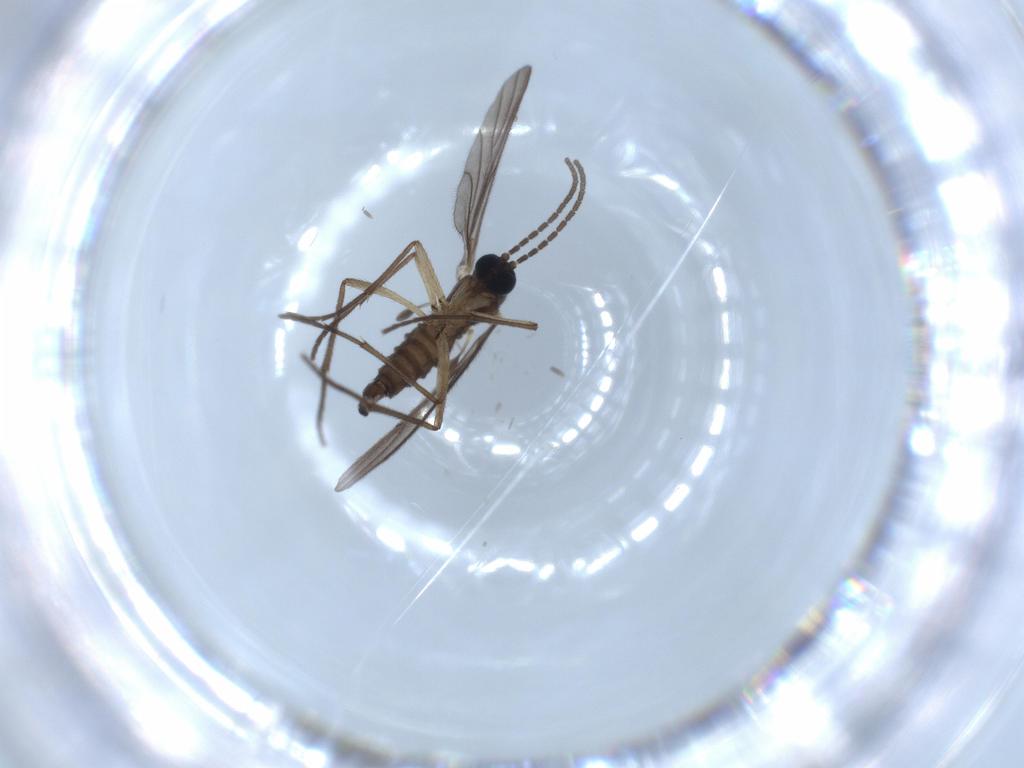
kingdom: Animalia
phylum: Arthropoda
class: Insecta
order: Diptera
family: Sciaridae
